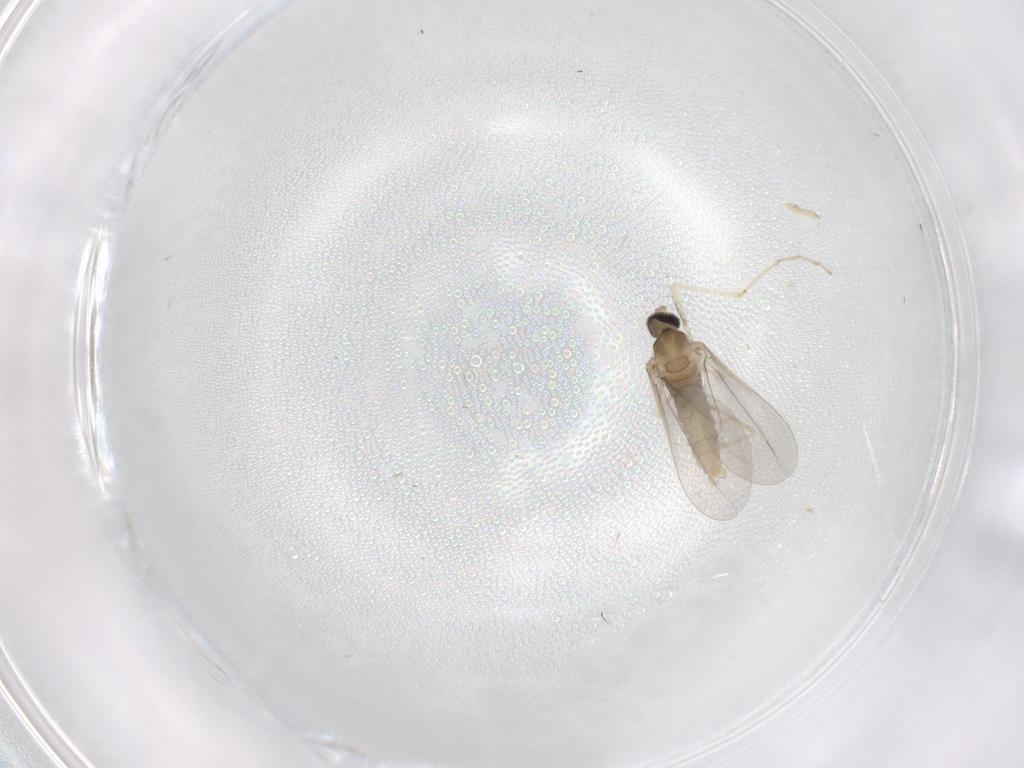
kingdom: Animalia
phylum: Arthropoda
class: Insecta
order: Diptera
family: Cecidomyiidae
